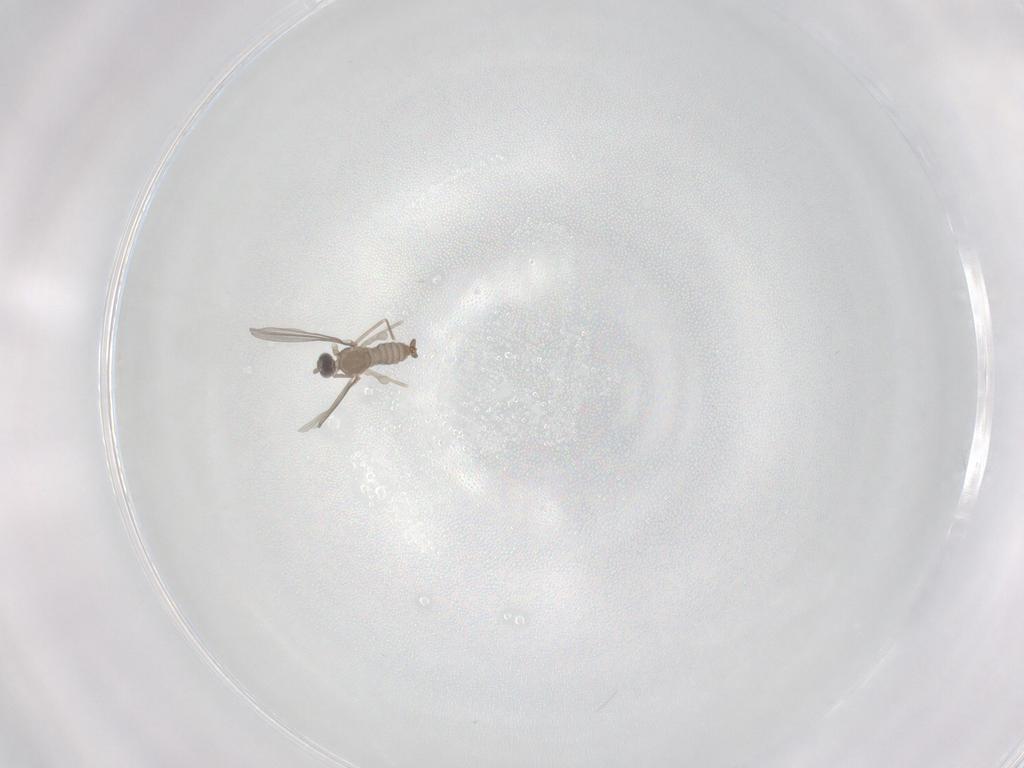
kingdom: Animalia
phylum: Arthropoda
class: Insecta
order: Diptera
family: Cecidomyiidae
